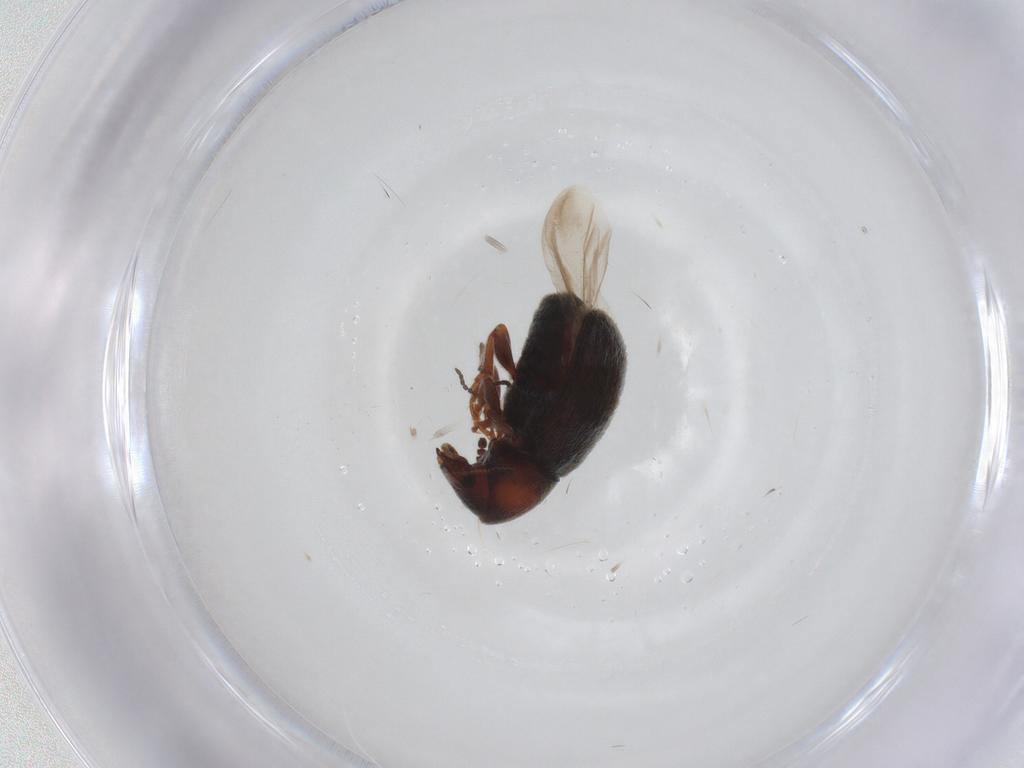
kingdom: Animalia
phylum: Arthropoda
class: Insecta
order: Coleoptera
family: Anthribidae
